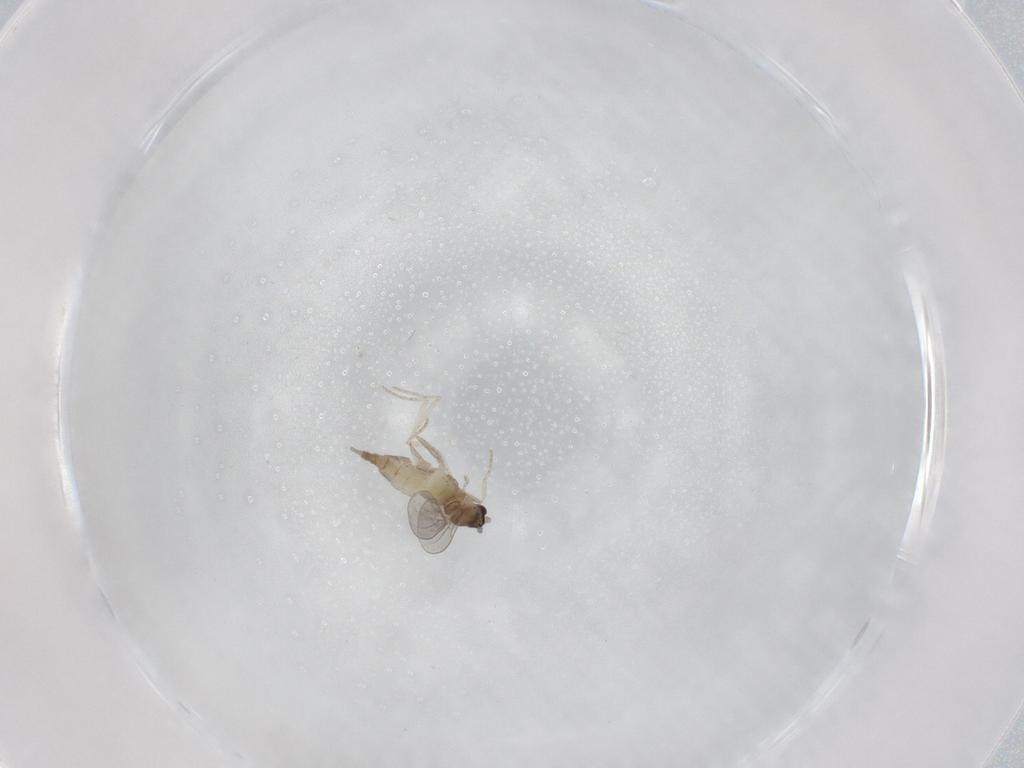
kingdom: Animalia
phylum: Arthropoda
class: Insecta
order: Diptera
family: Cecidomyiidae
